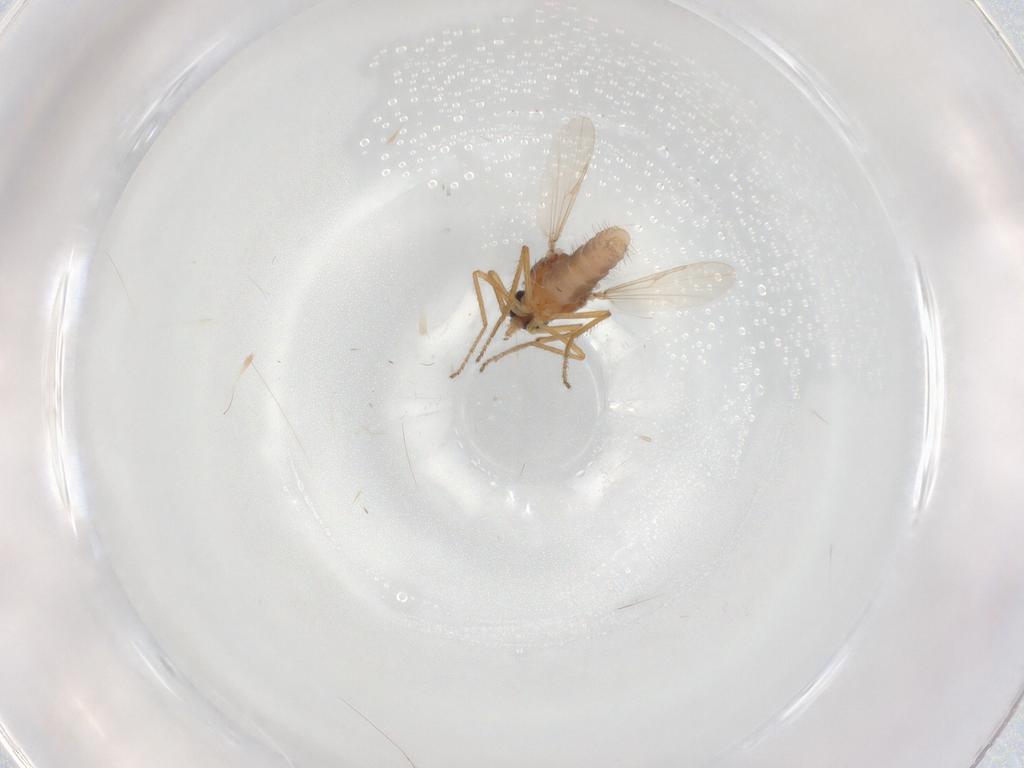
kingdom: Animalia
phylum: Arthropoda
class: Insecta
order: Diptera
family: Ceratopogonidae
